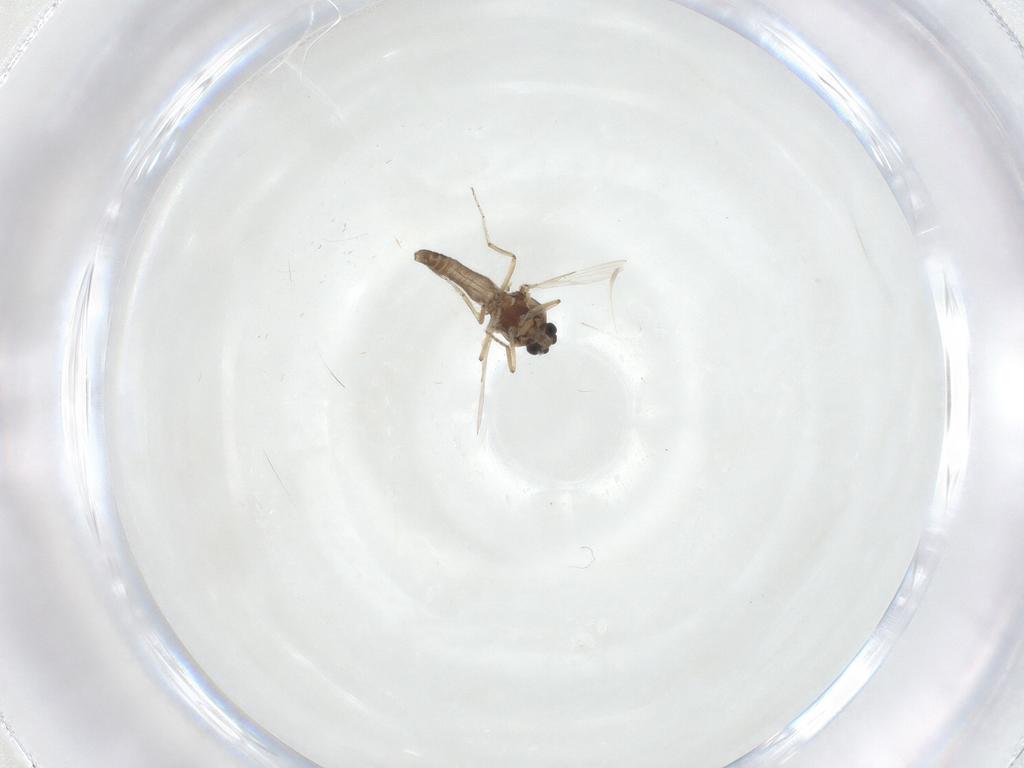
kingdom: Animalia
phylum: Arthropoda
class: Insecta
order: Diptera
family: Ceratopogonidae
